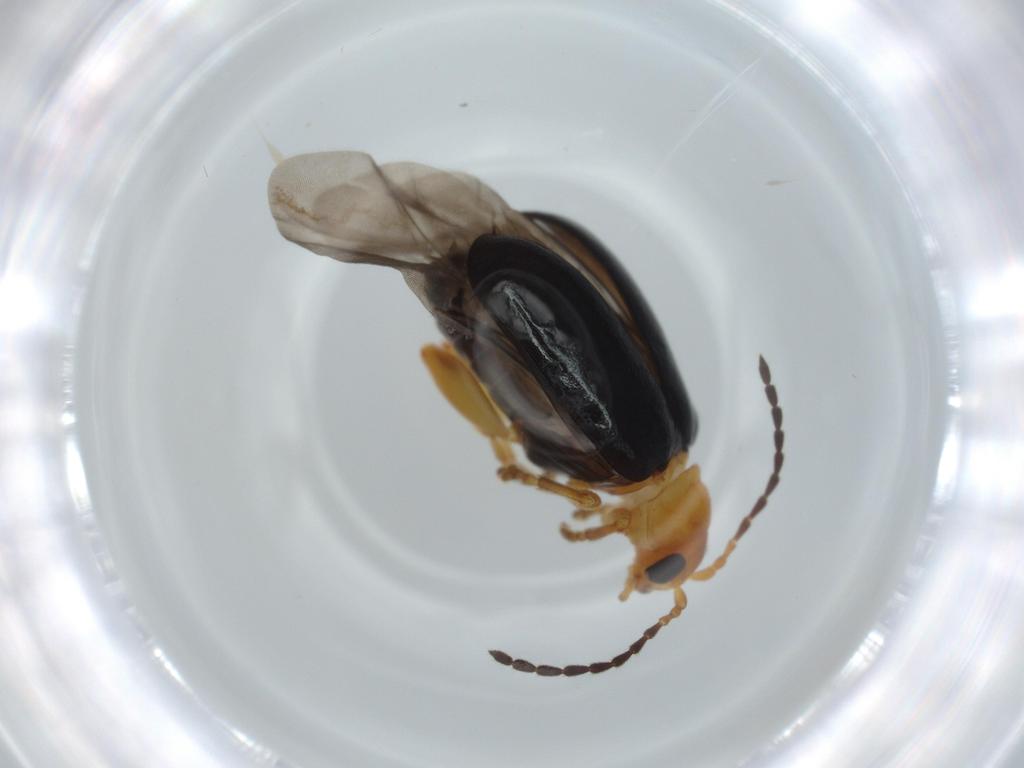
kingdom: Animalia
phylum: Arthropoda
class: Insecta
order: Coleoptera
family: Chrysomelidae
